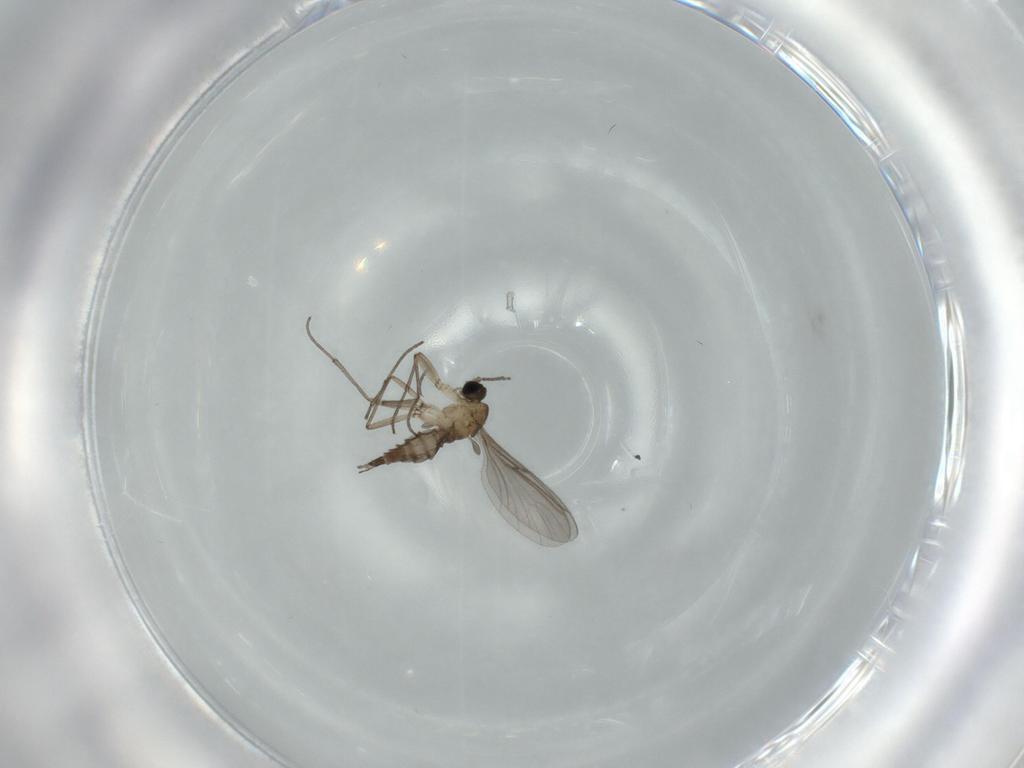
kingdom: Animalia
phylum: Arthropoda
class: Insecta
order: Diptera
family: Sciaridae
